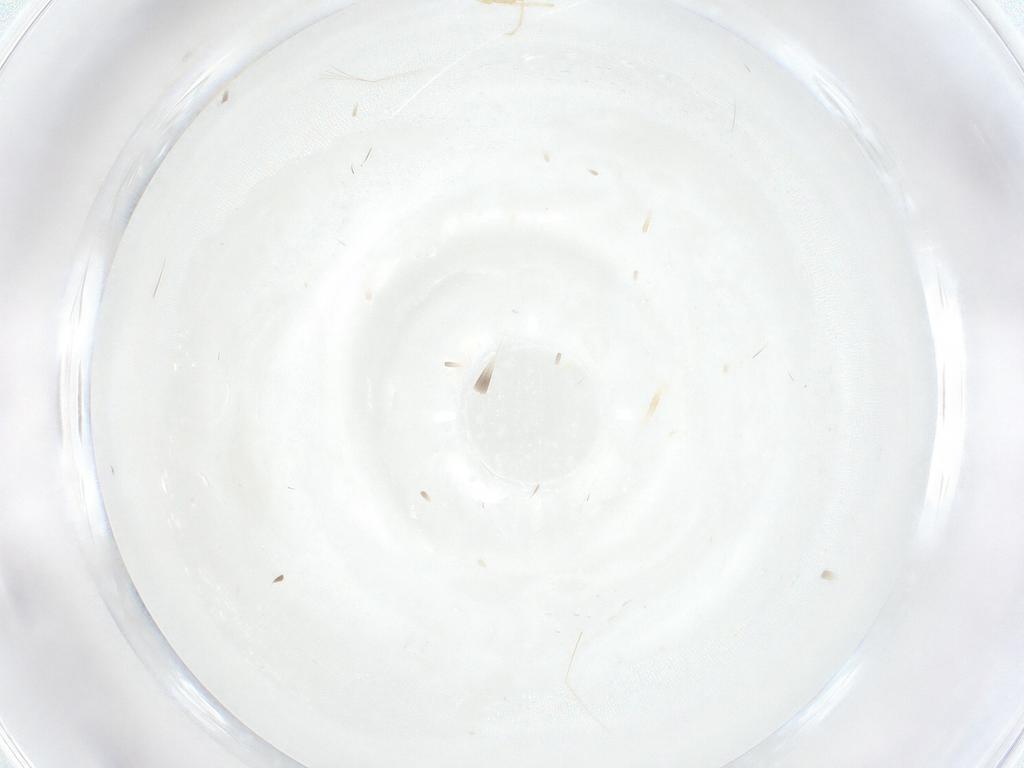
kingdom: Animalia
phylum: Arthropoda
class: Arachnida
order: Trombidiformes
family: Erythraeidae
